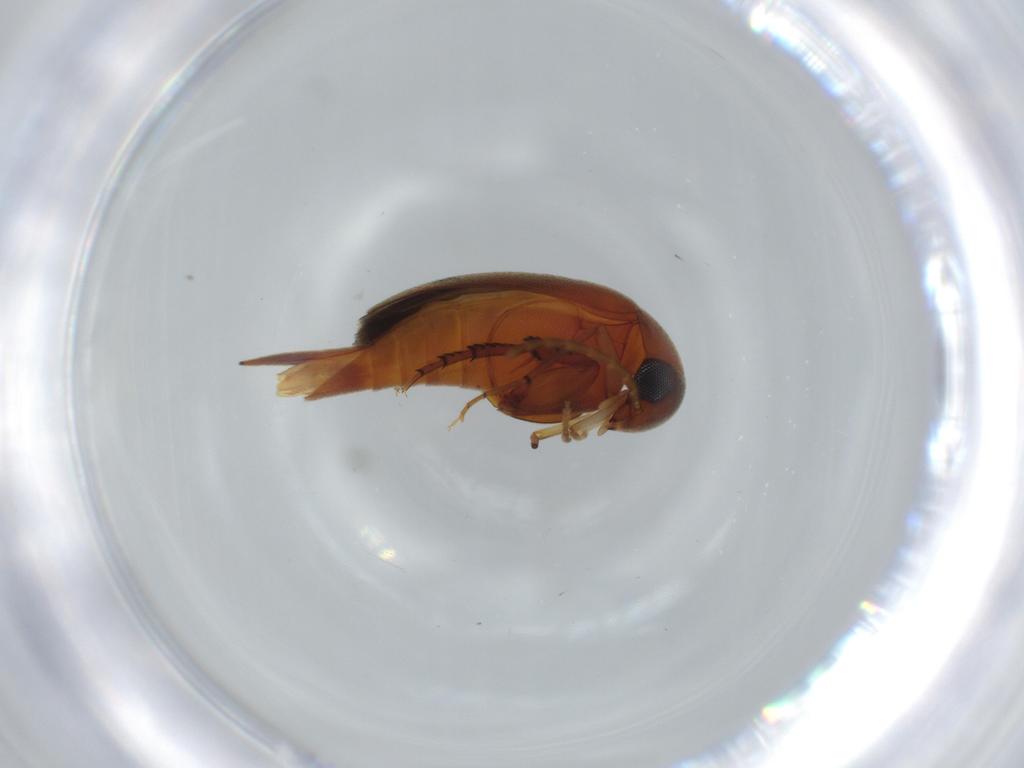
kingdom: Animalia
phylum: Arthropoda
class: Insecta
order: Coleoptera
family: Bostrichidae
